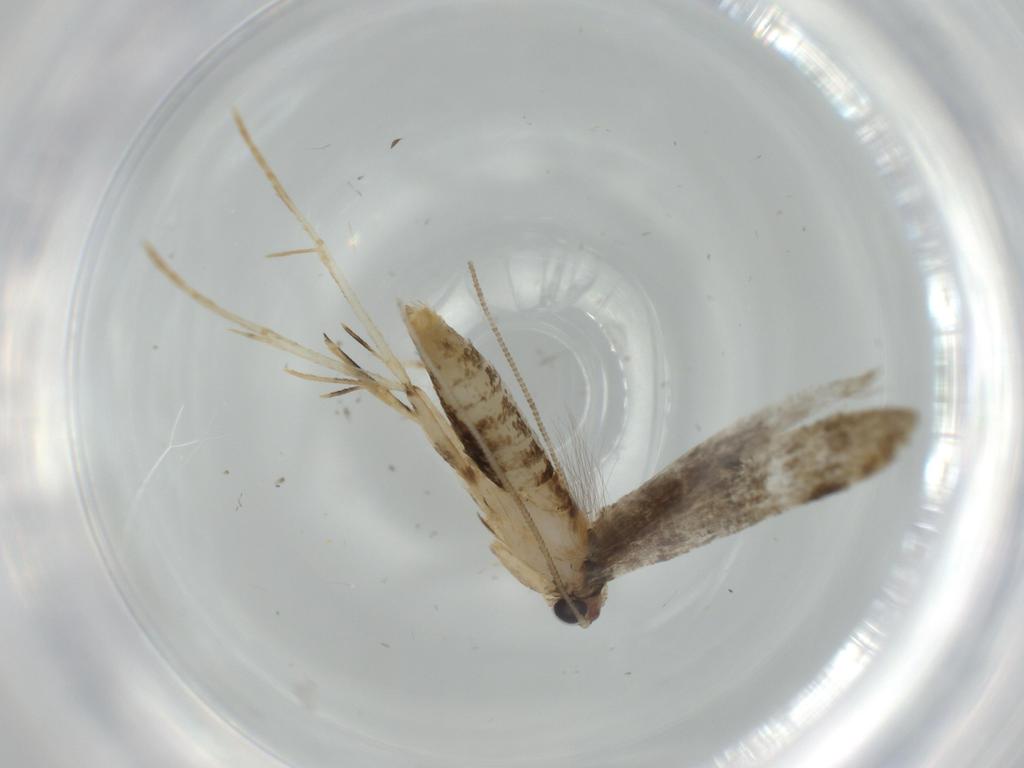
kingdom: Animalia
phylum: Arthropoda
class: Insecta
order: Lepidoptera
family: Tineidae
